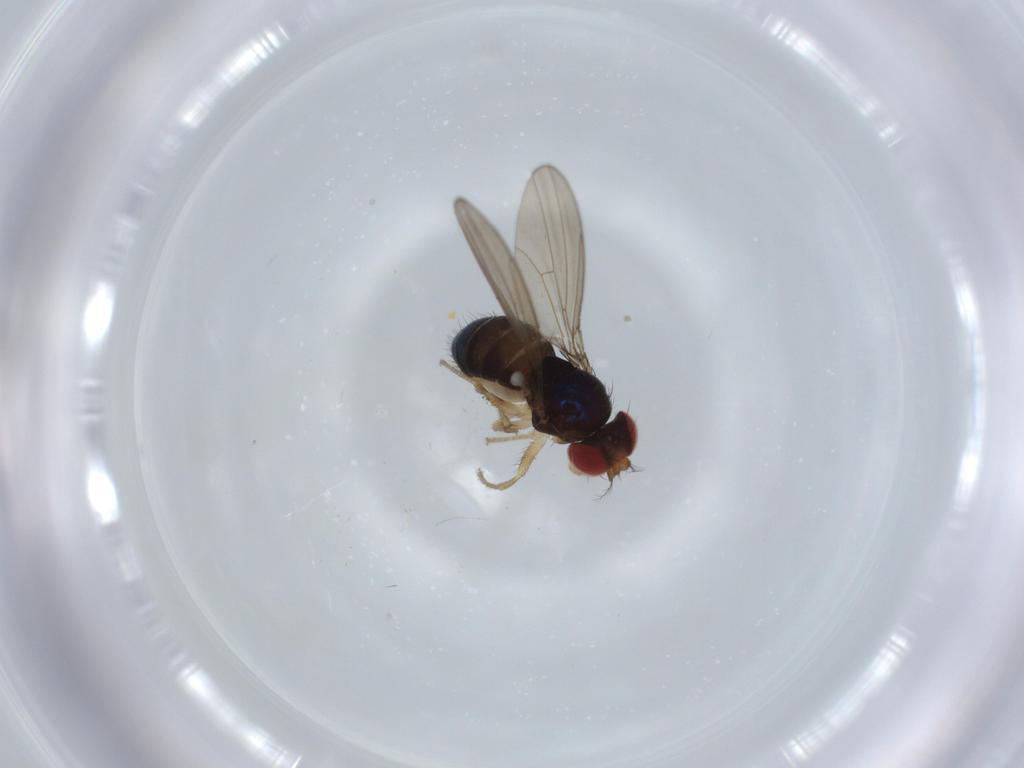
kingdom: Animalia
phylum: Arthropoda
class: Insecta
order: Diptera
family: Drosophilidae
